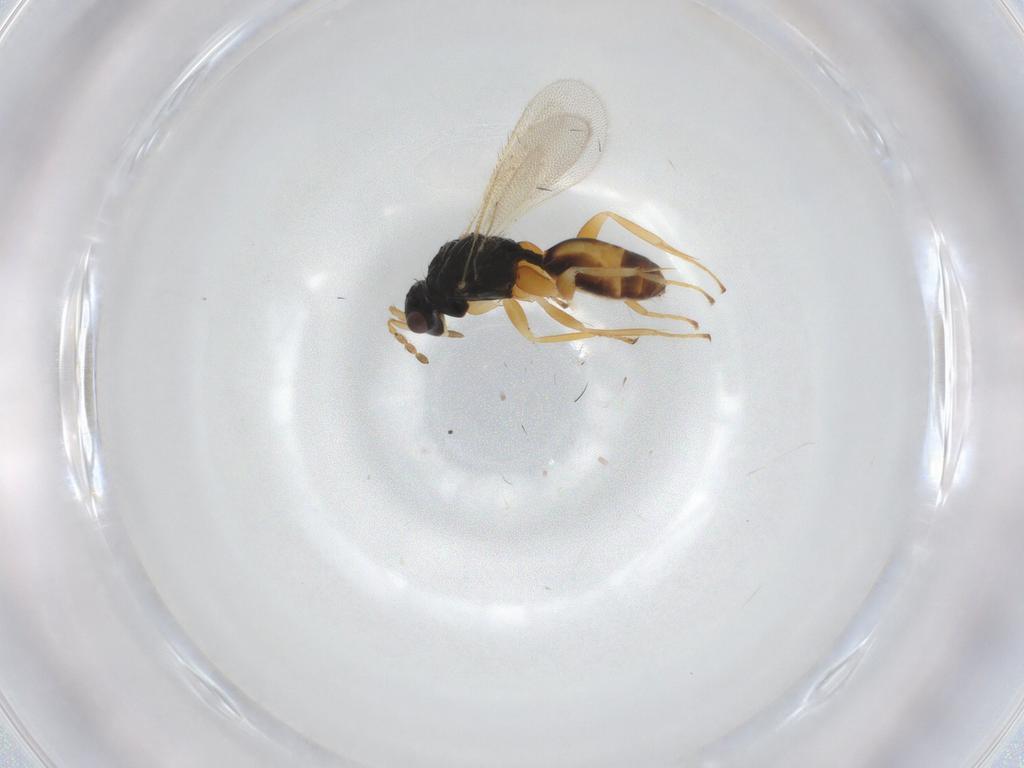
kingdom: Animalia
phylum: Arthropoda
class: Insecta
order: Hymenoptera
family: Eulophidae
